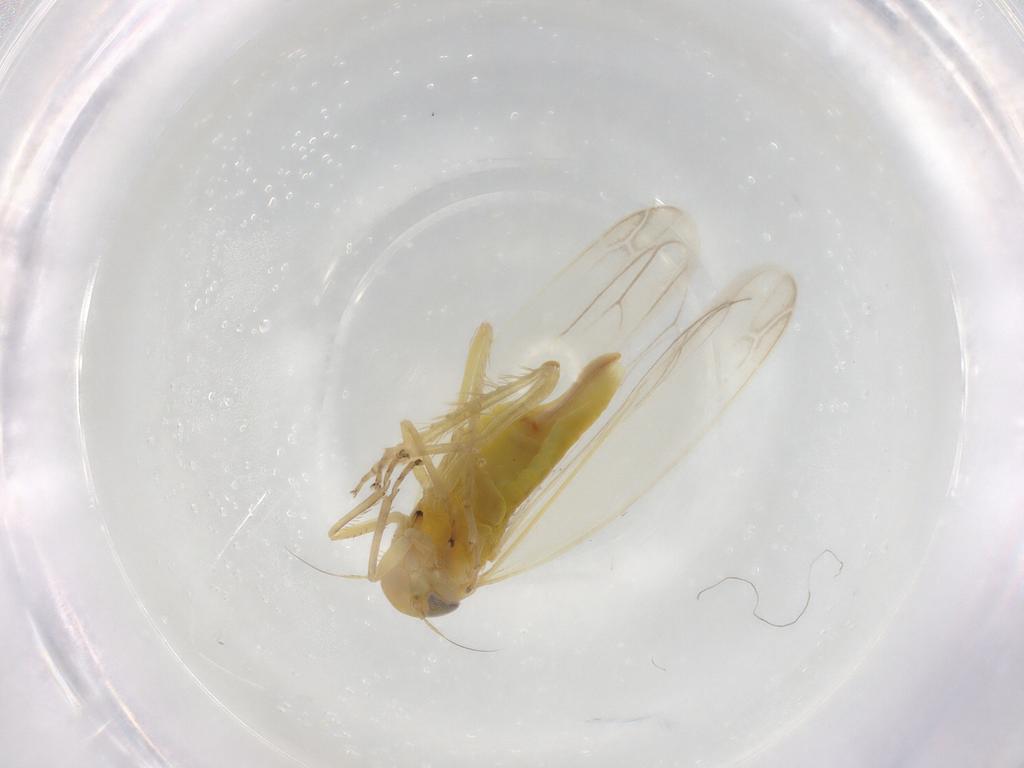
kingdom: Animalia
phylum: Arthropoda
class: Insecta
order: Hemiptera
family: Cicadellidae
